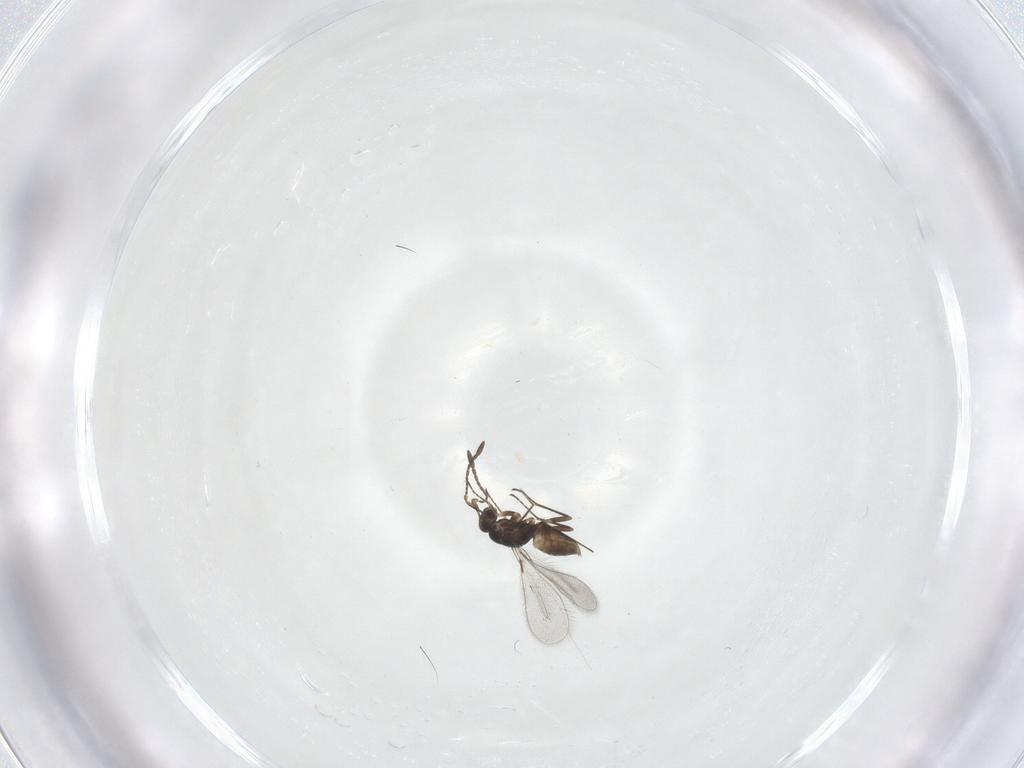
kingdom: Animalia
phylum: Arthropoda
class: Insecta
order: Hymenoptera
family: Mymaridae
